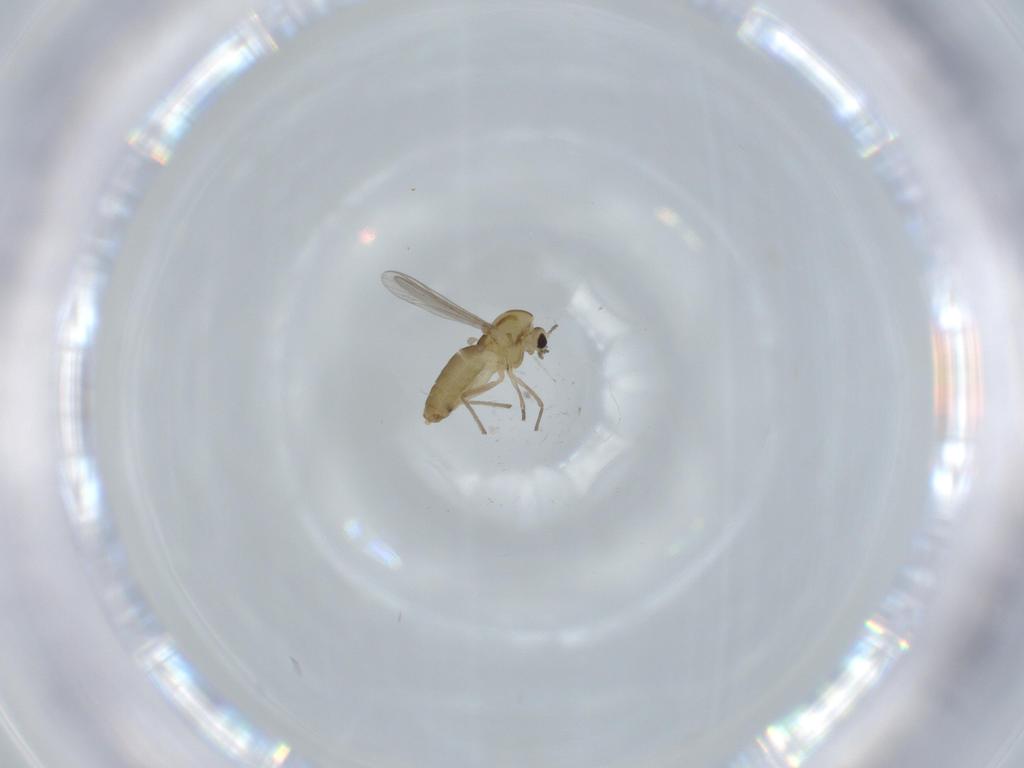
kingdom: Animalia
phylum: Arthropoda
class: Insecta
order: Diptera
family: Chironomidae
